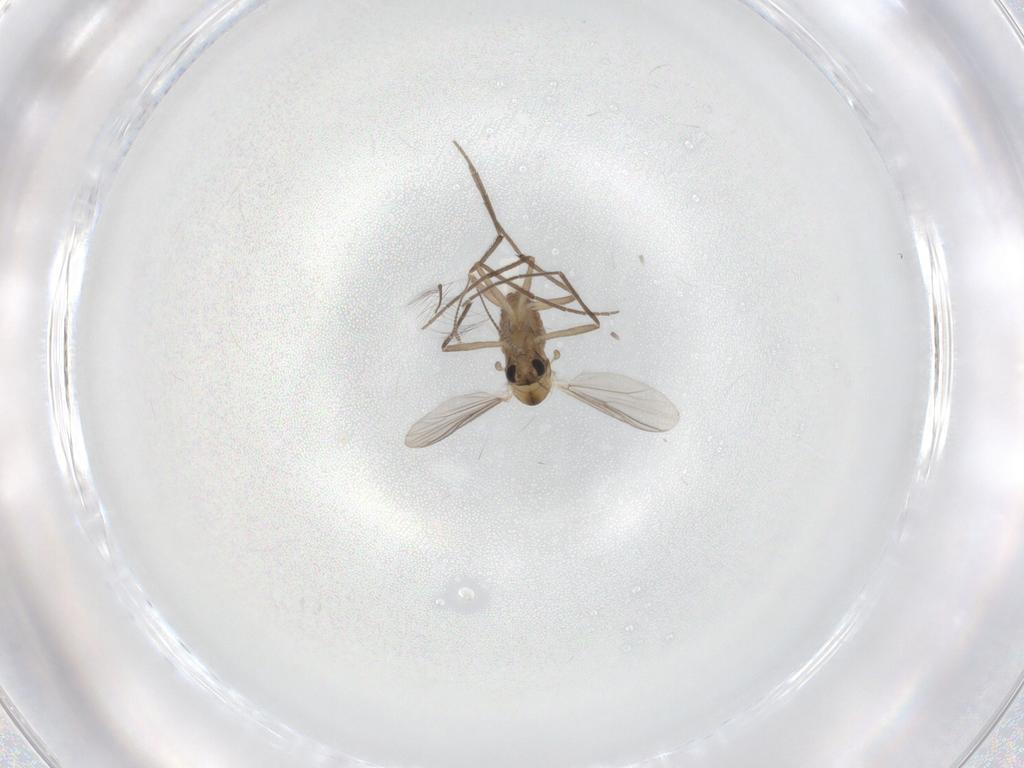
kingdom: Animalia
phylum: Arthropoda
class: Insecta
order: Diptera
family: Chironomidae
